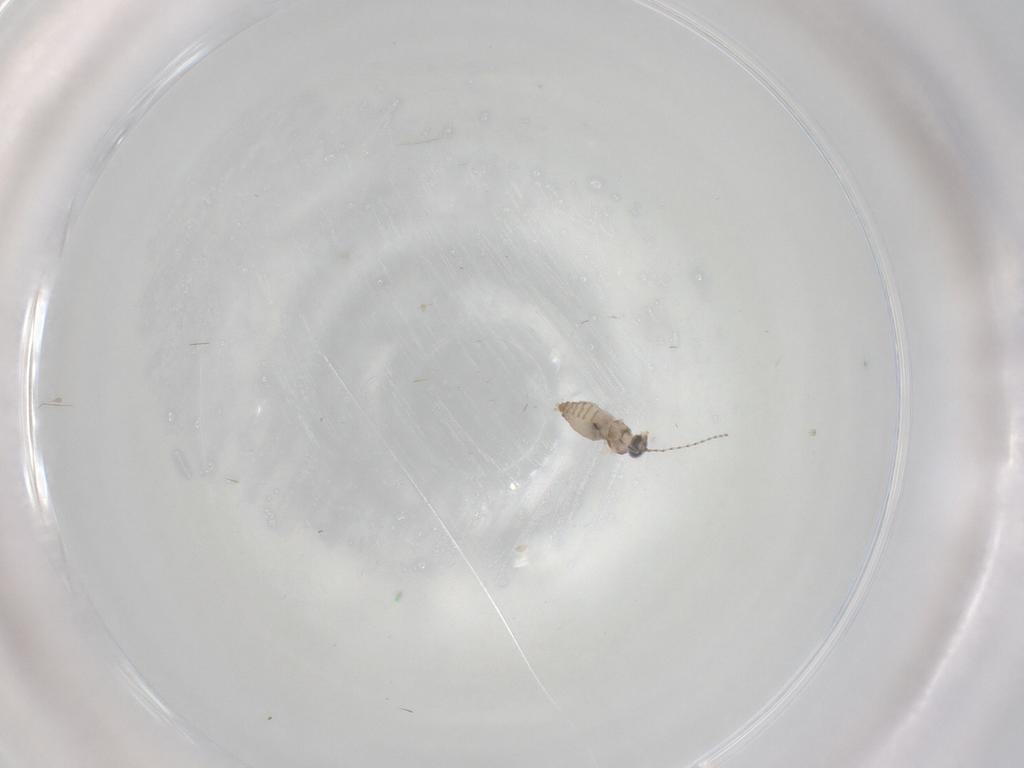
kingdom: Animalia
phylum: Arthropoda
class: Insecta
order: Diptera
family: Cecidomyiidae
